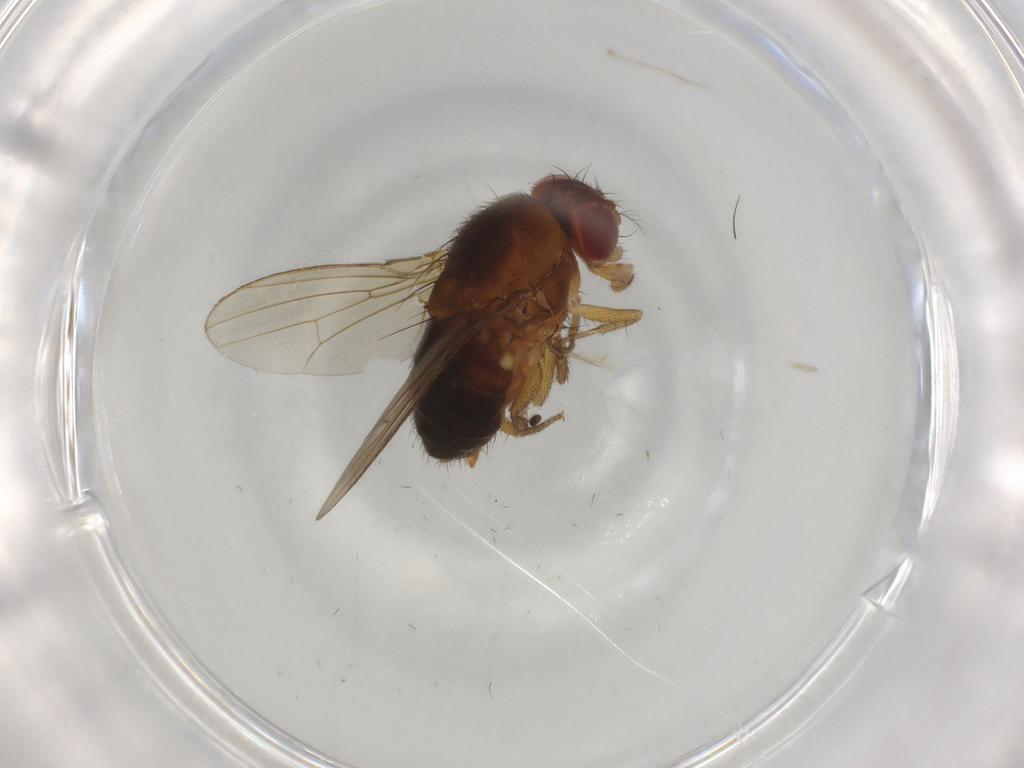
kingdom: Animalia
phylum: Arthropoda
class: Insecta
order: Diptera
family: Drosophilidae
